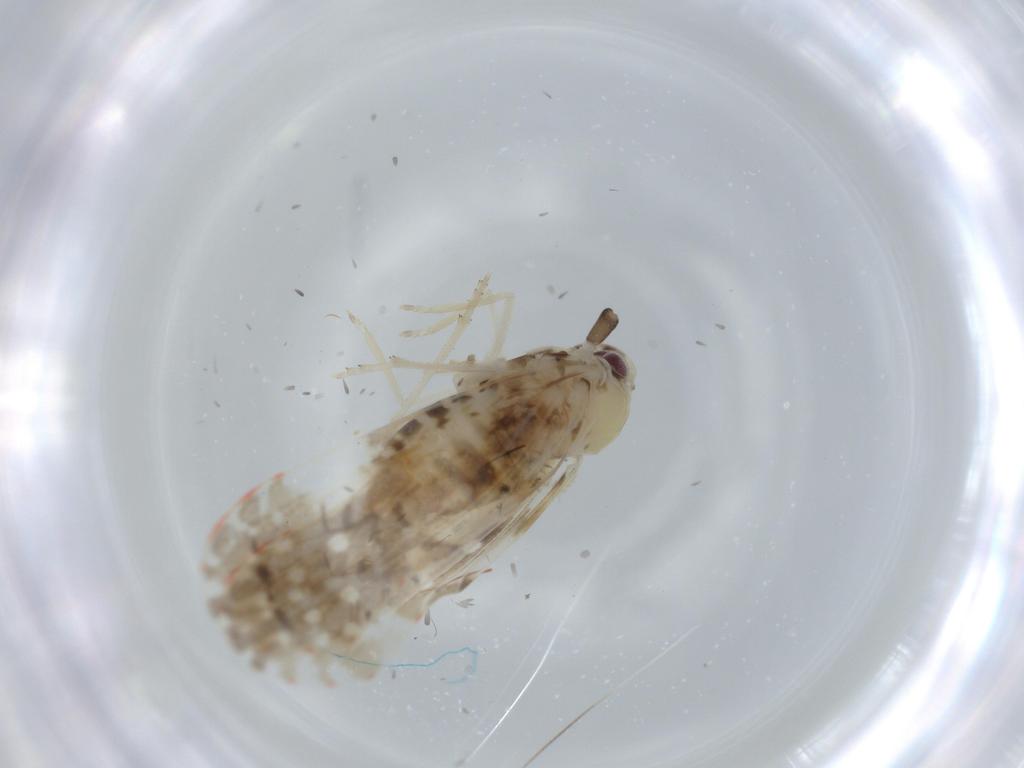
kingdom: Animalia
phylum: Arthropoda
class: Insecta
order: Hemiptera
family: Derbidae
